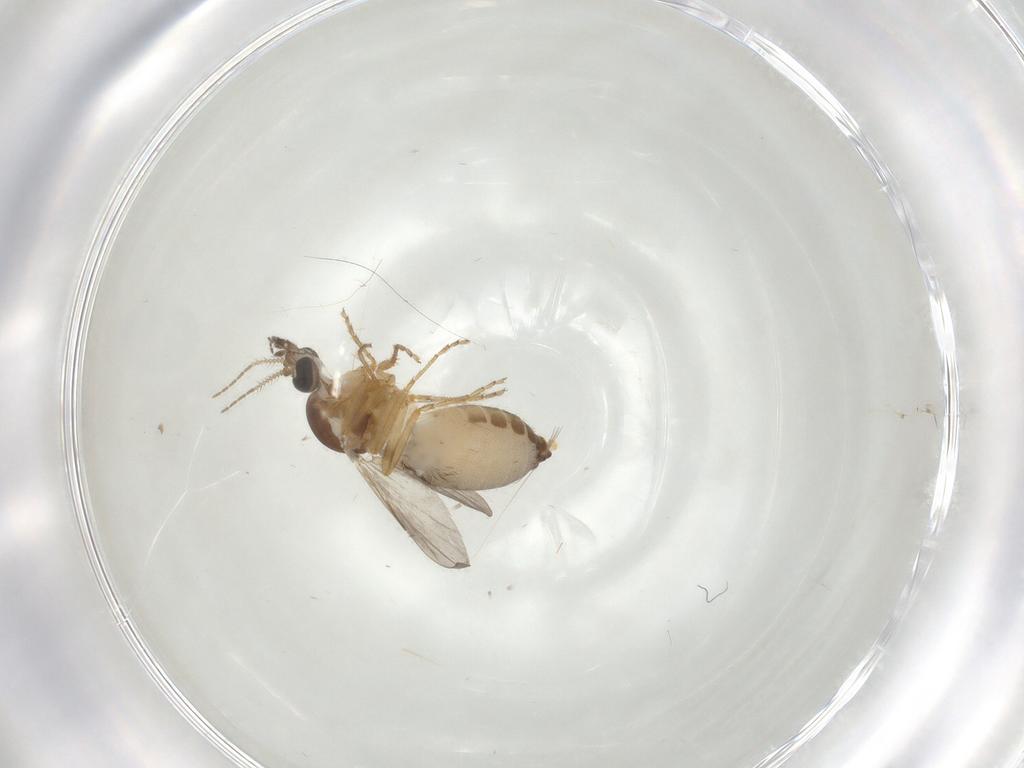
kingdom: Animalia
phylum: Arthropoda
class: Insecta
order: Diptera
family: Ceratopogonidae
